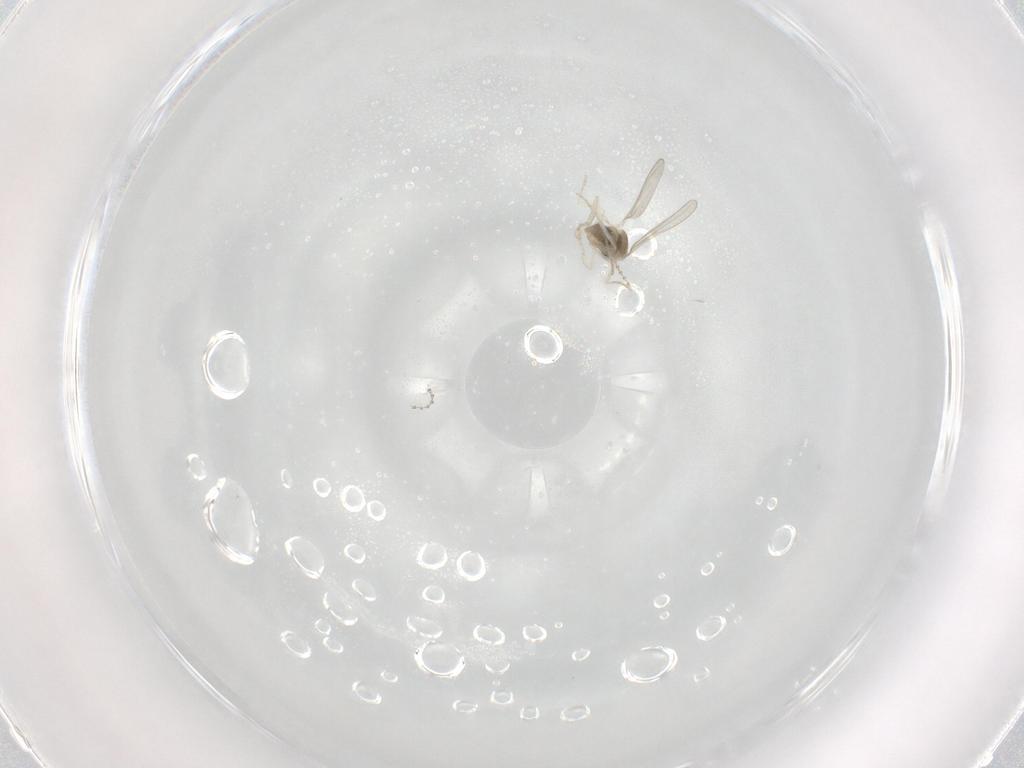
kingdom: Animalia
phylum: Arthropoda
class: Insecta
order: Diptera
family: Cecidomyiidae
